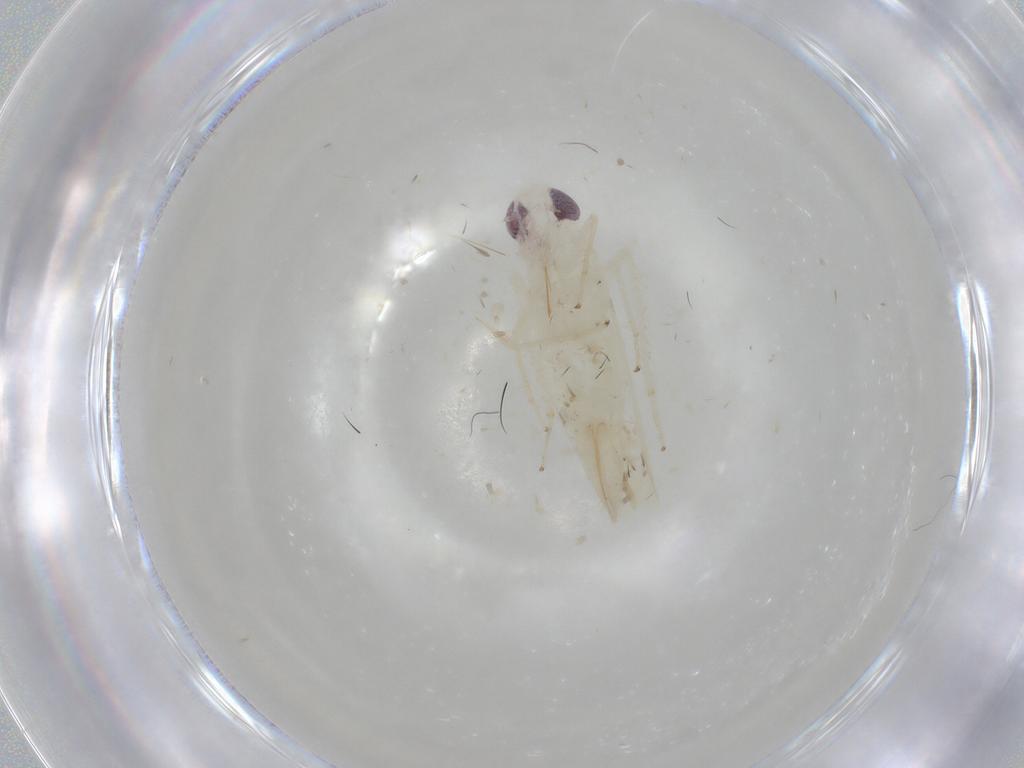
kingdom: Animalia
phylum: Arthropoda
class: Insecta
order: Hemiptera
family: Cicadellidae
